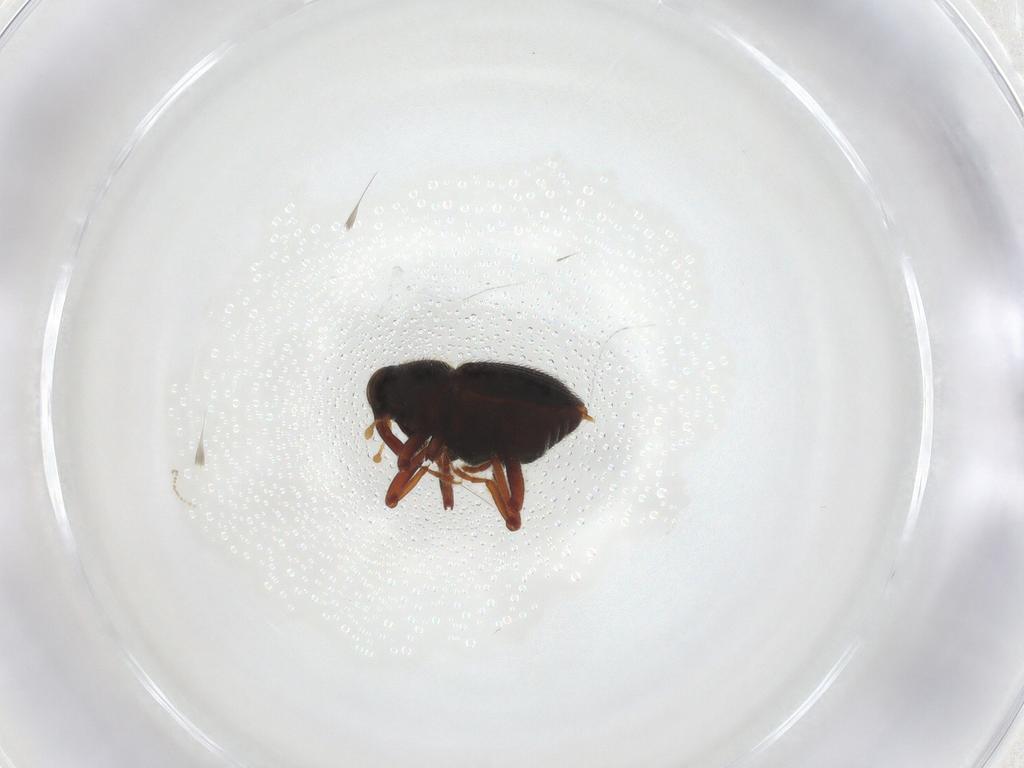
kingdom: Animalia
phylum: Arthropoda
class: Insecta
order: Coleoptera
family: Curculionidae
